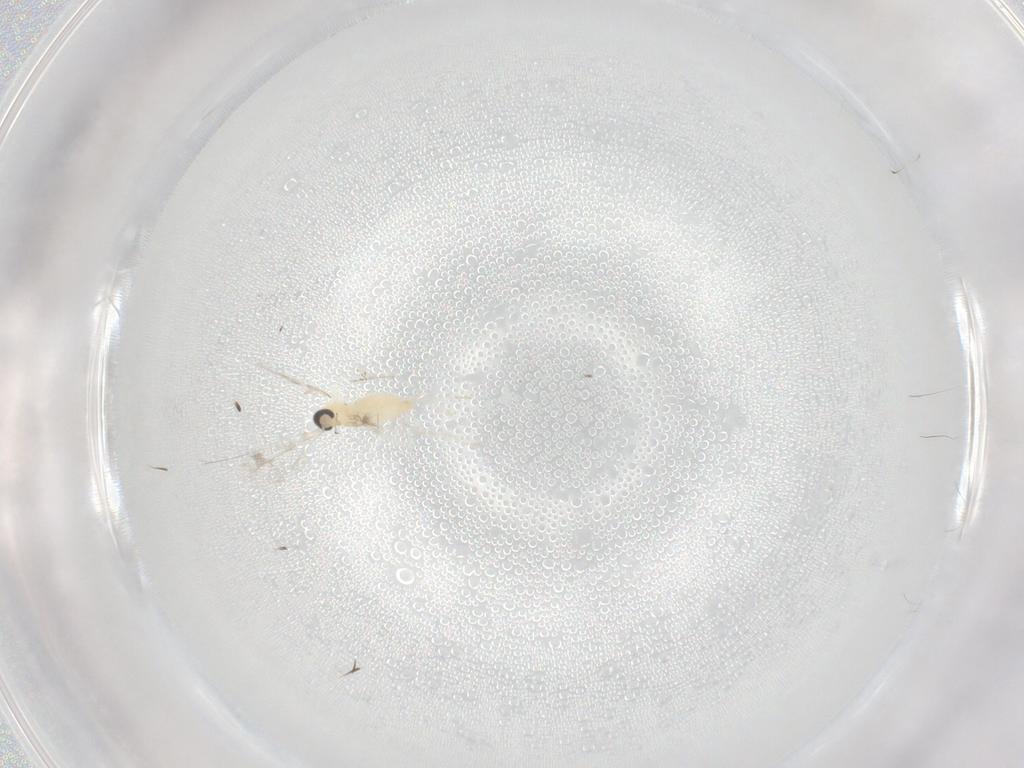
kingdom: Animalia
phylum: Arthropoda
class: Insecta
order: Diptera
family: Cecidomyiidae
